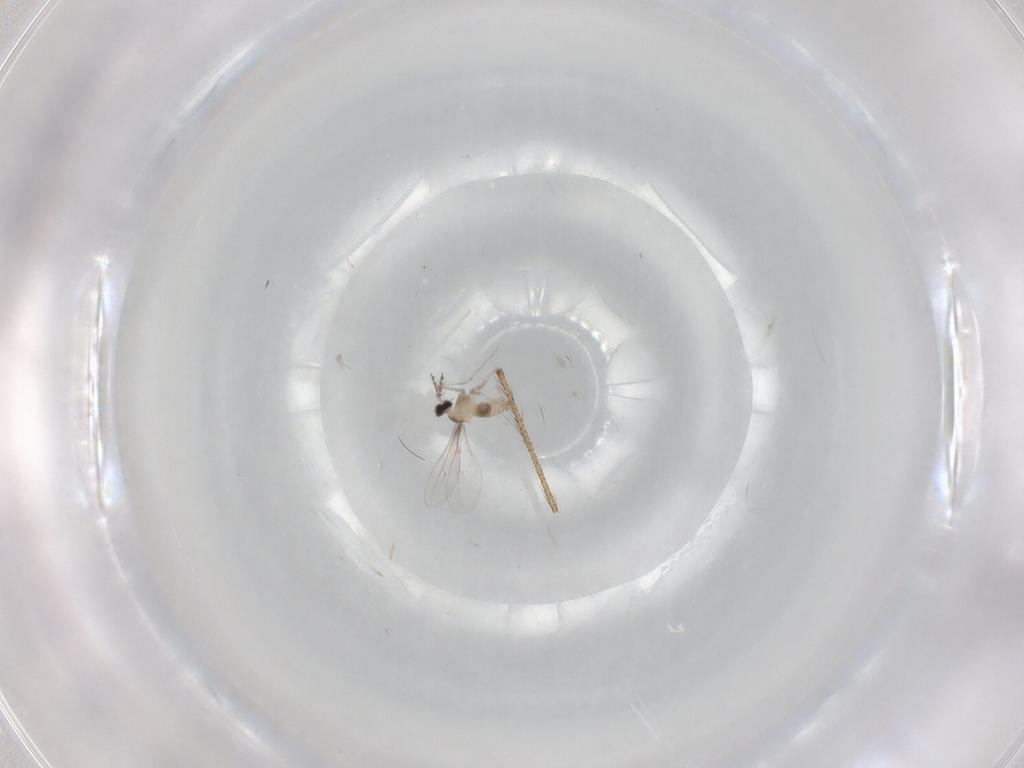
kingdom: Animalia
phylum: Arthropoda
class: Insecta
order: Diptera
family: Cecidomyiidae
